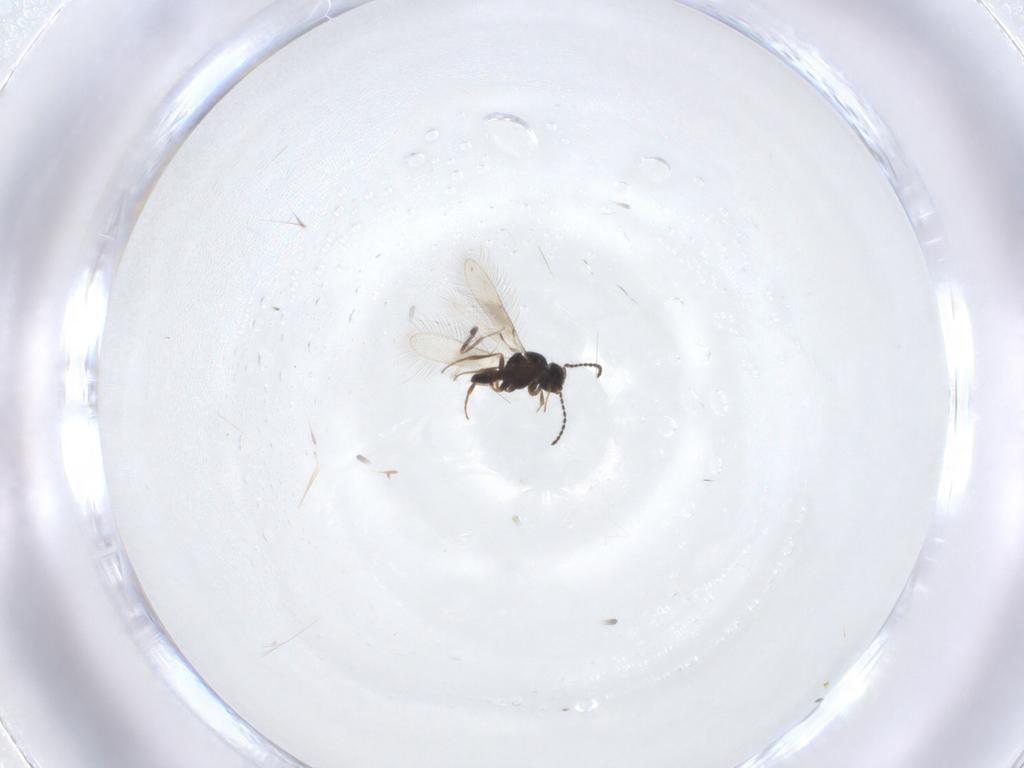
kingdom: Animalia
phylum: Arthropoda
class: Insecta
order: Hymenoptera
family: Scelionidae
